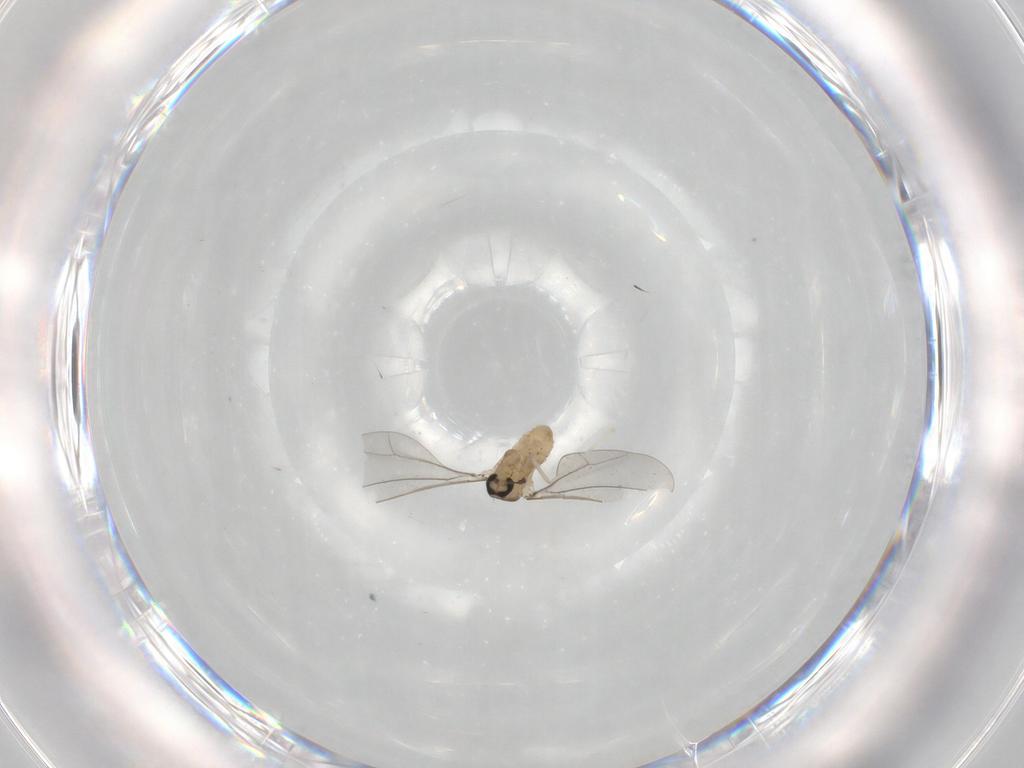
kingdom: Animalia
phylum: Arthropoda
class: Insecta
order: Diptera
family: Cecidomyiidae
